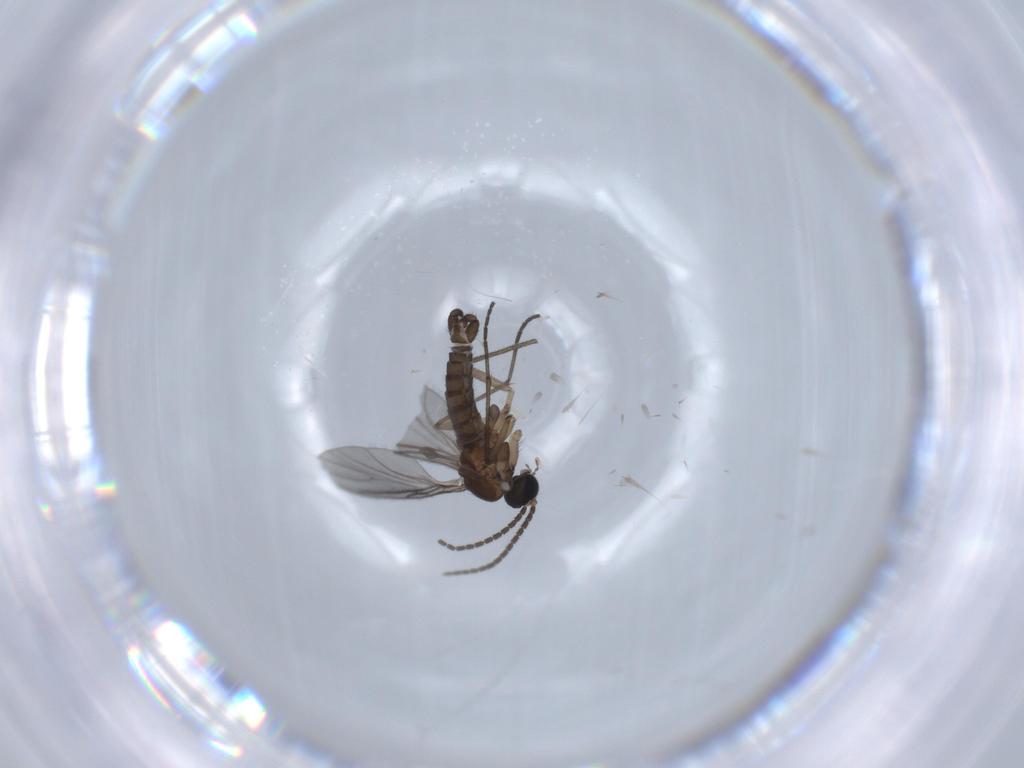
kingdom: Animalia
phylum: Arthropoda
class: Insecta
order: Diptera
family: Sciaridae
